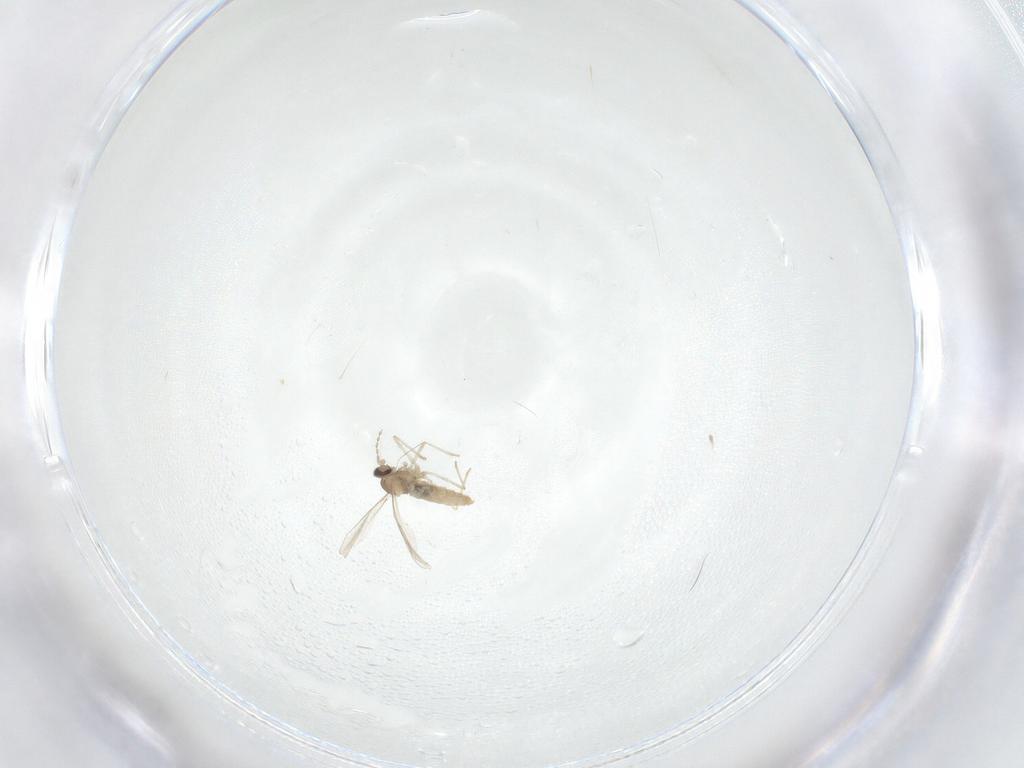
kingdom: Animalia
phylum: Arthropoda
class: Insecta
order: Diptera
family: Cecidomyiidae
